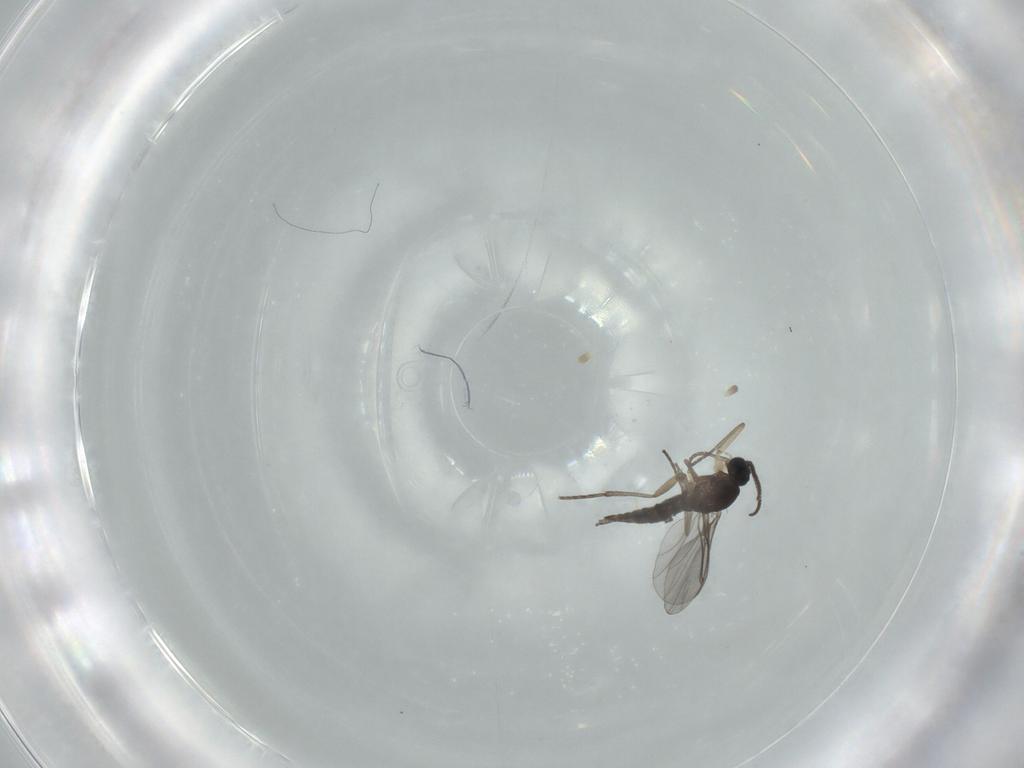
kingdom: Animalia
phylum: Arthropoda
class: Insecta
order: Diptera
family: Sciaridae
